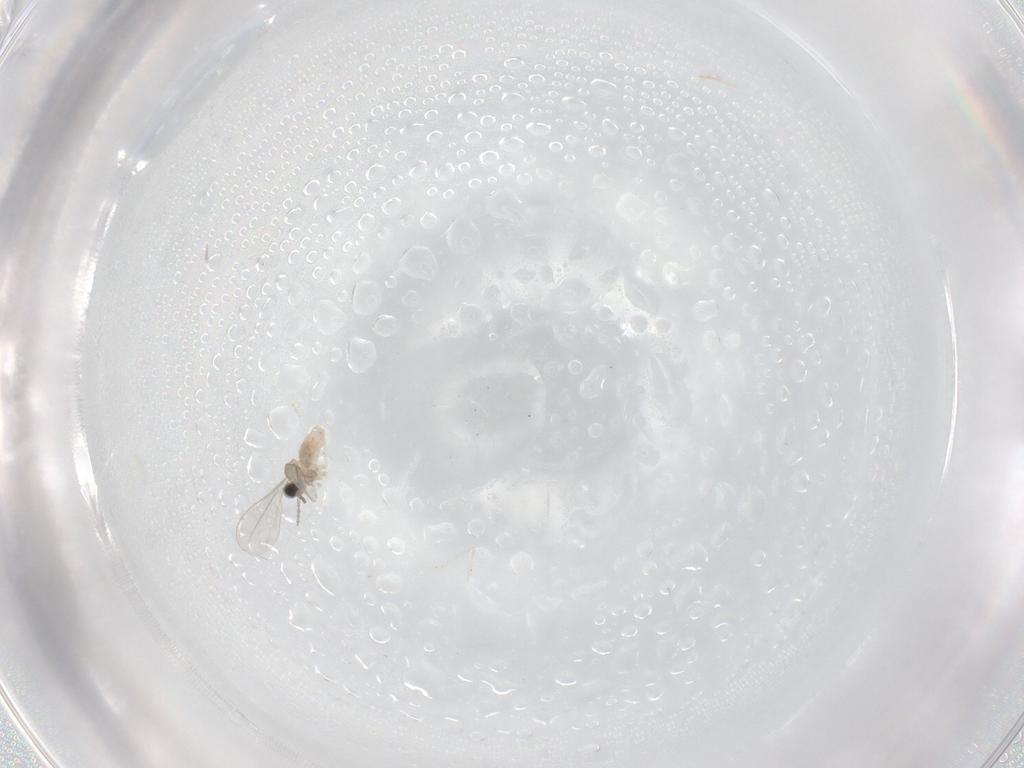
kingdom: Animalia
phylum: Arthropoda
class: Insecta
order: Diptera
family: Cecidomyiidae
